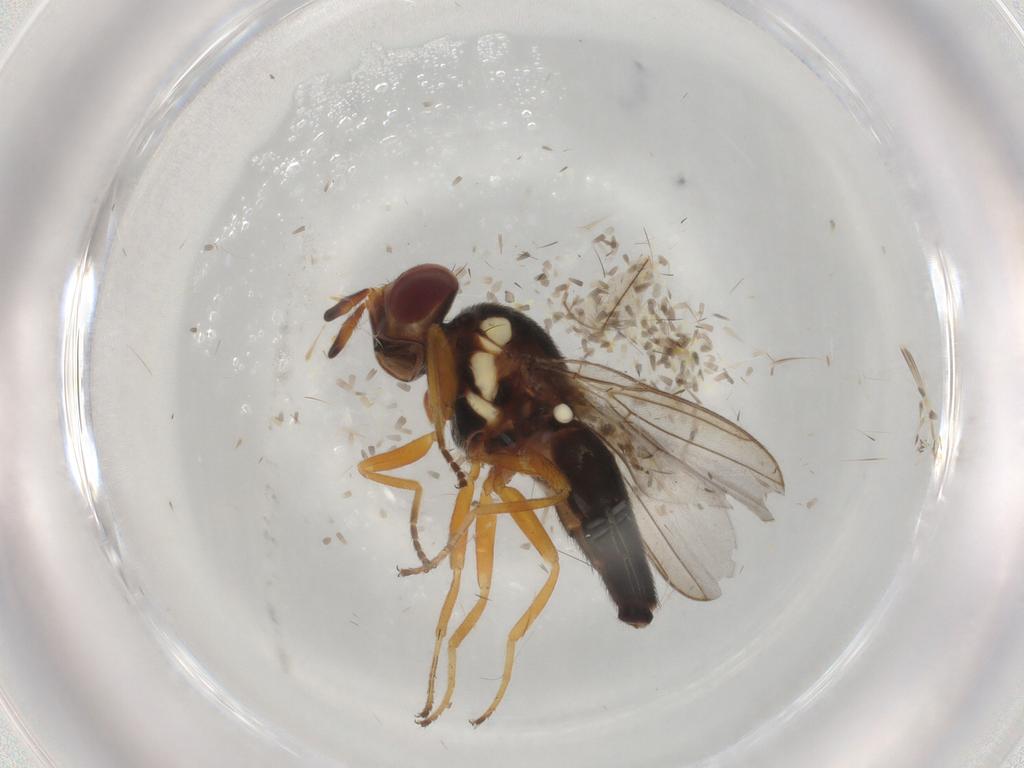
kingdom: Animalia
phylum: Arthropoda
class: Insecta
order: Diptera
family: Chloropidae
